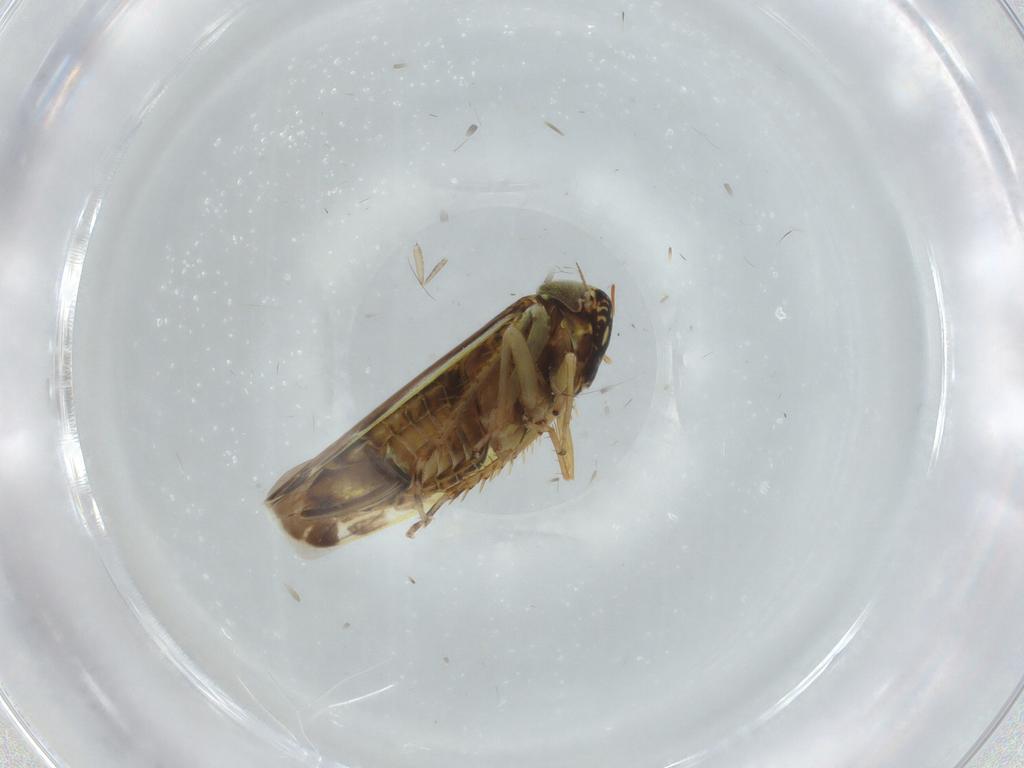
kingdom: Animalia
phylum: Arthropoda
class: Insecta
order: Hemiptera
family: Cicadellidae
